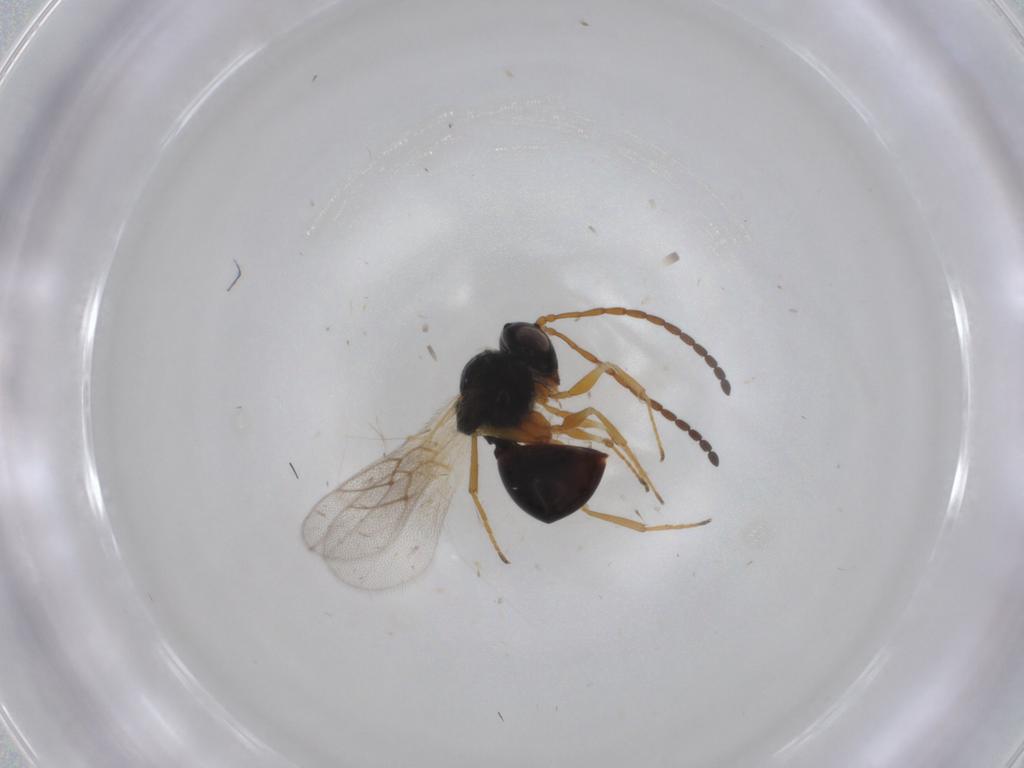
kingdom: Animalia
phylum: Arthropoda
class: Insecta
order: Hymenoptera
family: Figitidae
